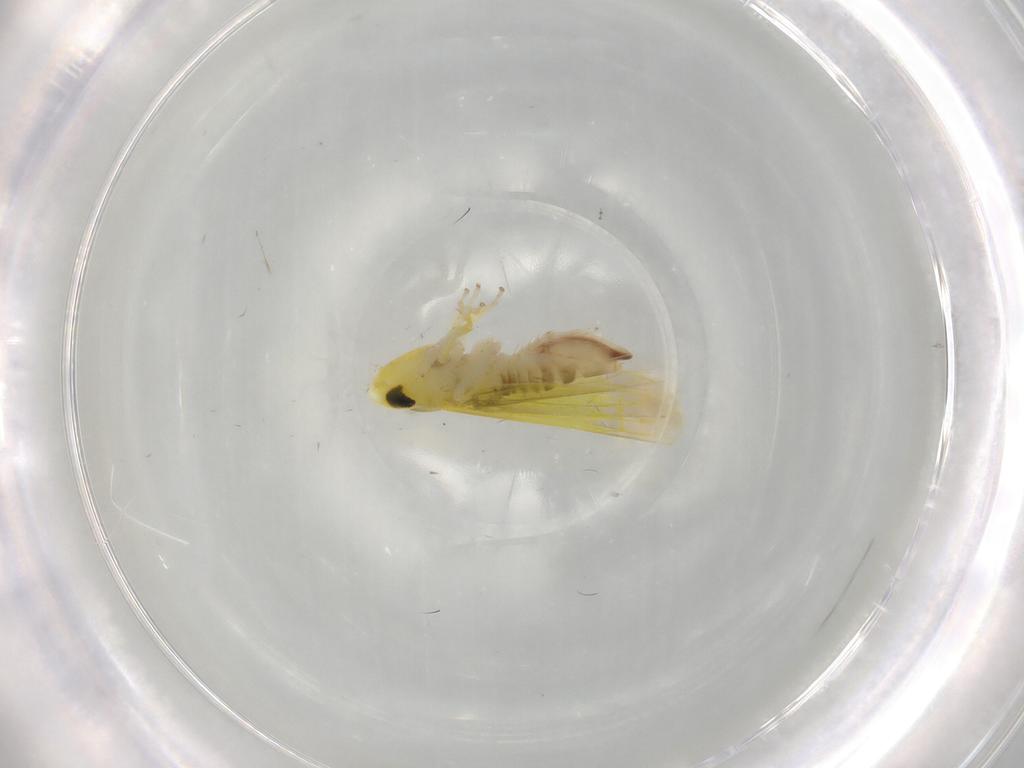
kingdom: Animalia
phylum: Arthropoda
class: Insecta
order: Hemiptera
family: Cicadellidae
